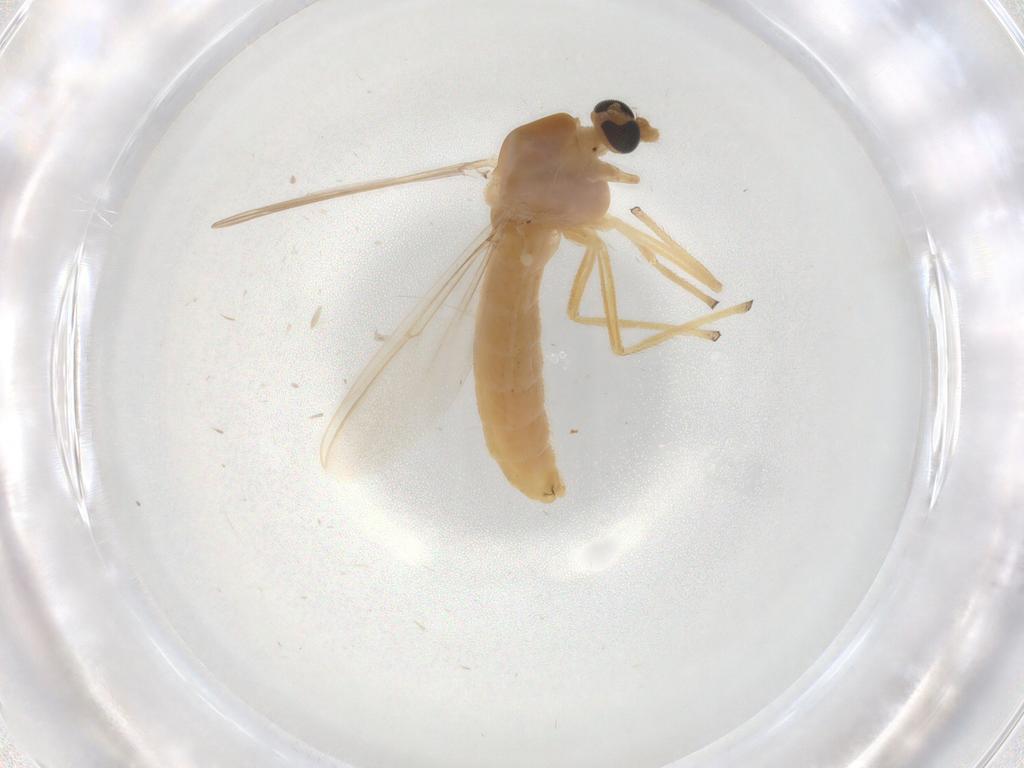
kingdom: Animalia
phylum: Arthropoda
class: Insecta
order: Diptera
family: Chironomidae
